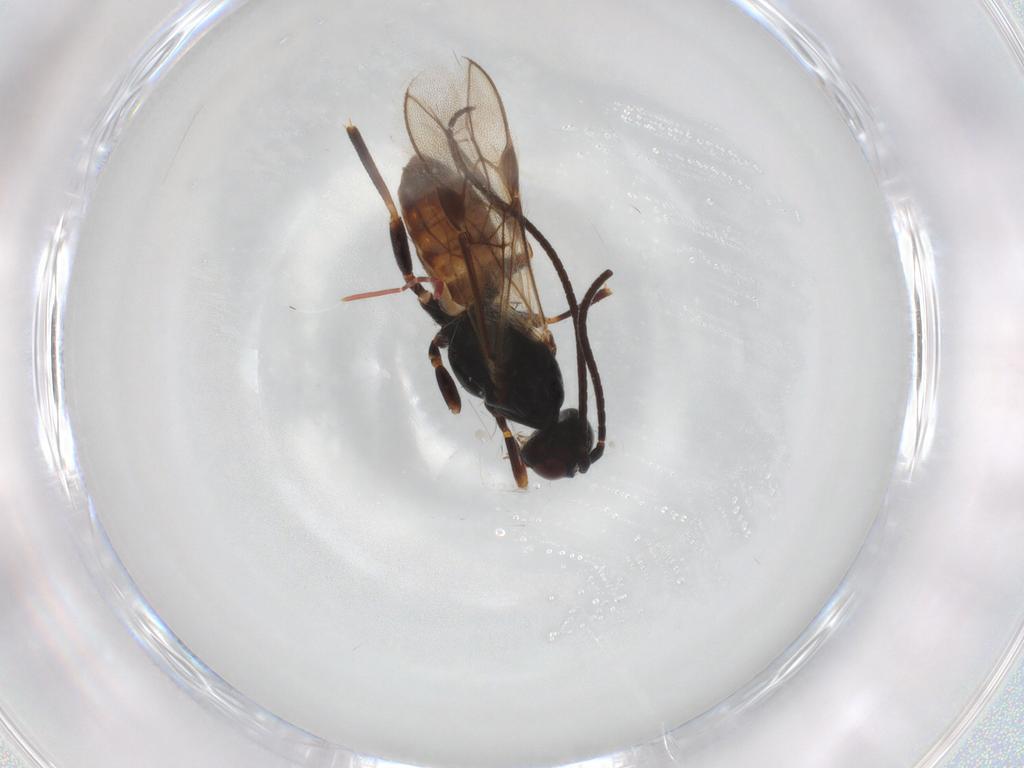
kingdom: Animalia
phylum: Arthropoda
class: Insecta
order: Hymenoptera
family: Braconidae
